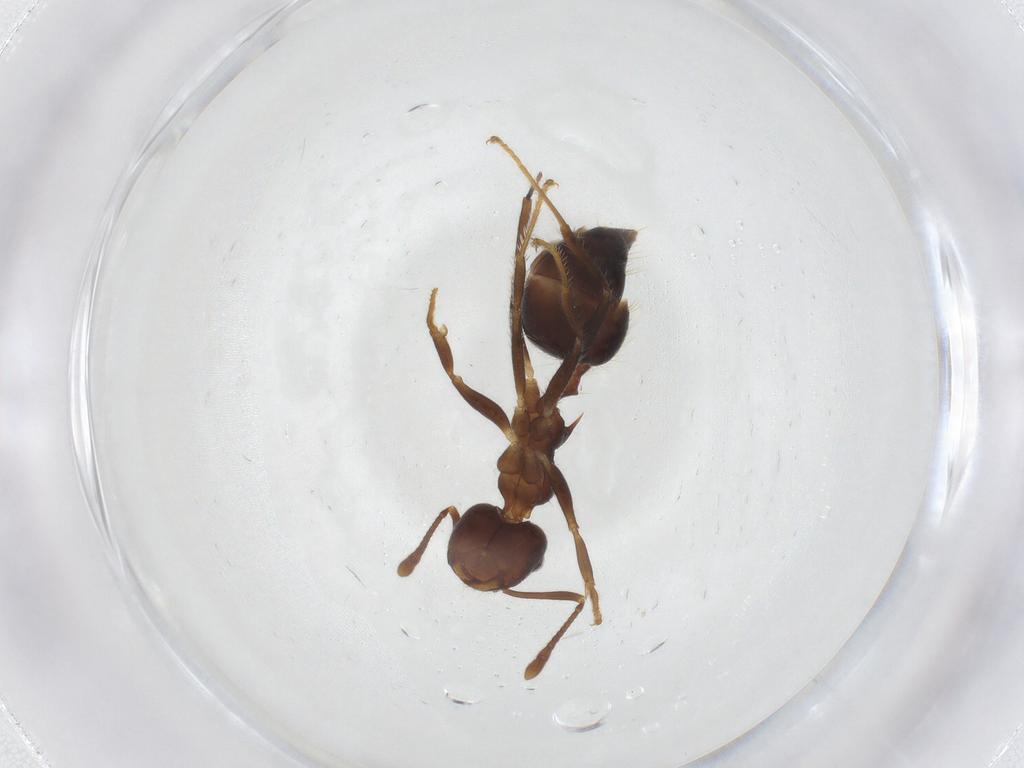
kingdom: Animalia
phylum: Arthropoda
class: Insecta
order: Hymenoptera
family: Formicidae
